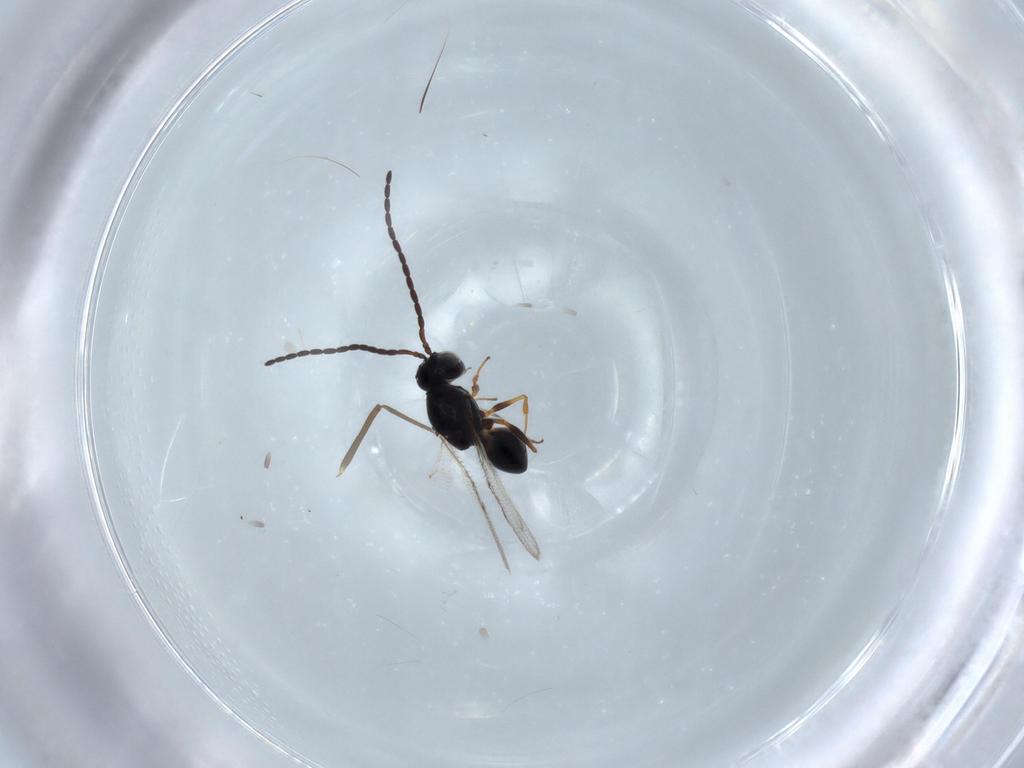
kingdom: Animalia
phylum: Arthropoda
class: Insecta
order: Hymenoptera
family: Figitidae
